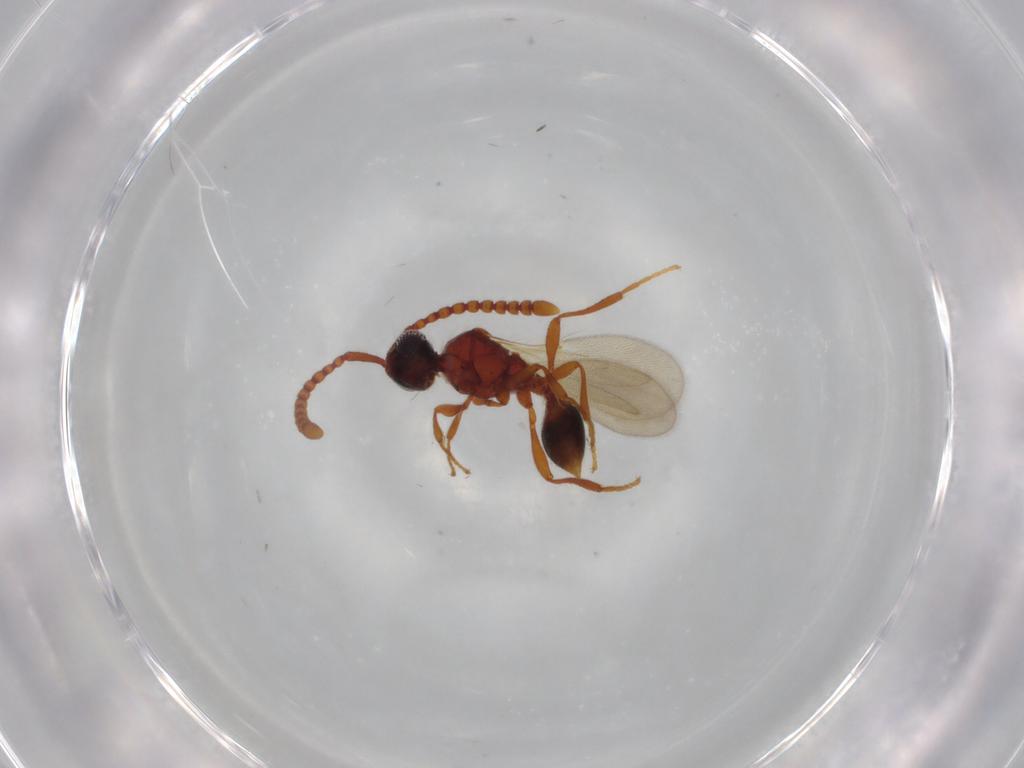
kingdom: Animalia
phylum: Arthropoda
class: Insecta
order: Hymenoptera
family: Diapriidae
